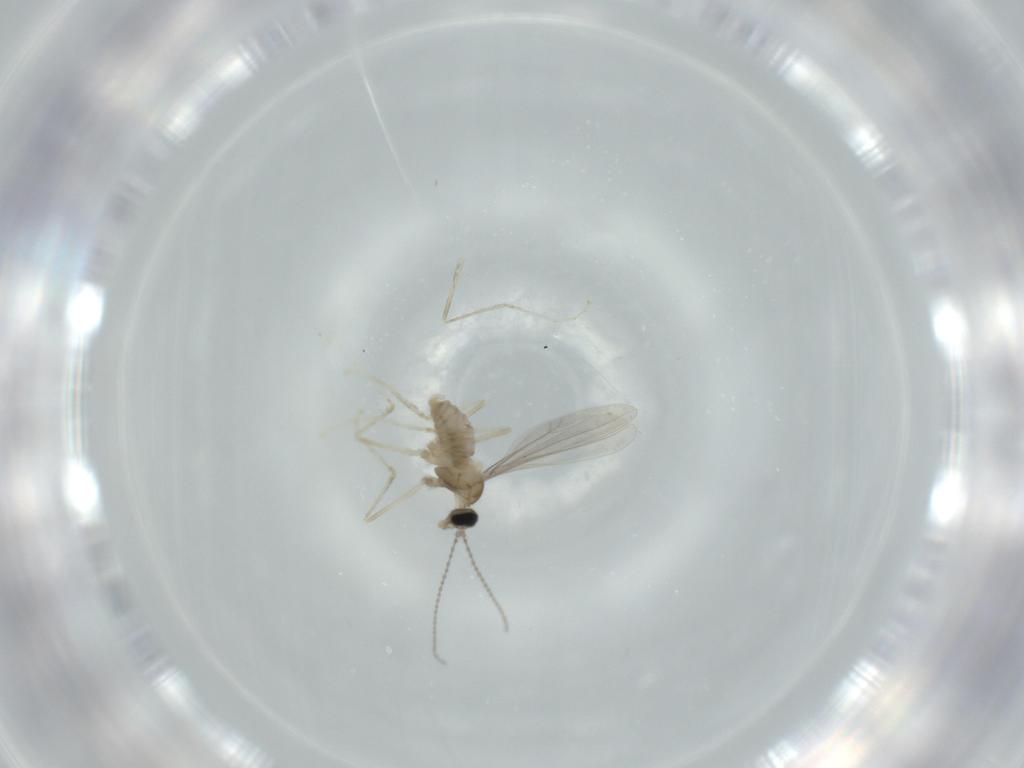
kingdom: Animalia
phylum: Arthropoda
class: Insecta
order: Diptera
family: Cecidomyiidae
